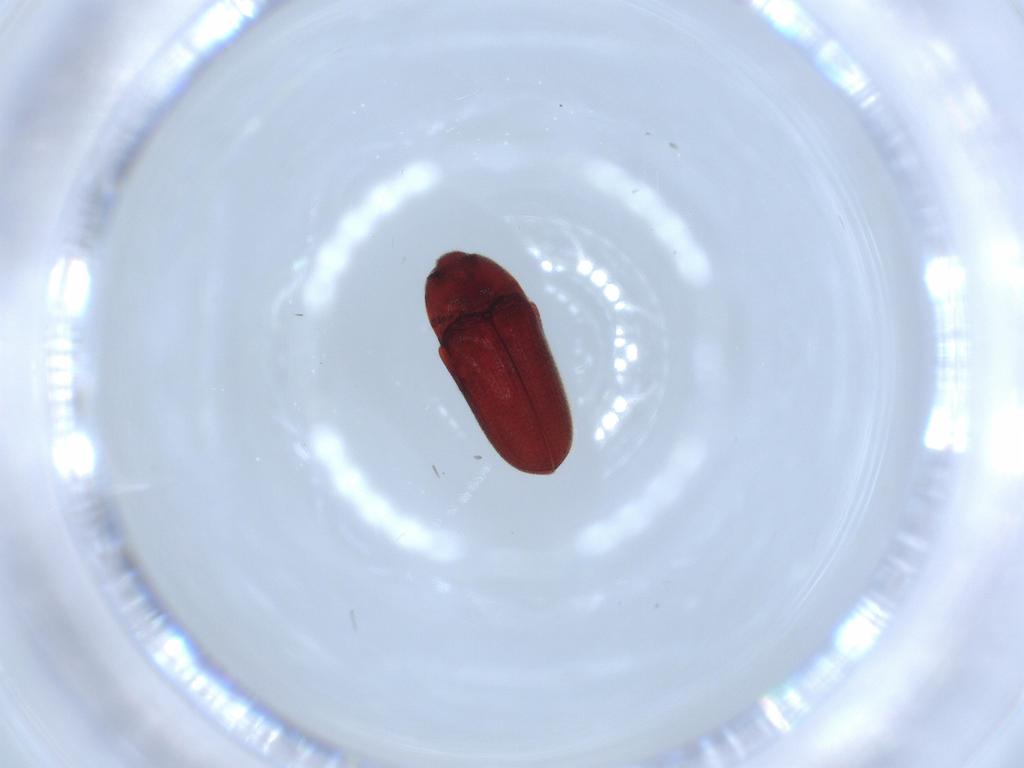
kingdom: Animalia
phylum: Arthropoda
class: Insecta
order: Coleoptera
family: Throscidae
